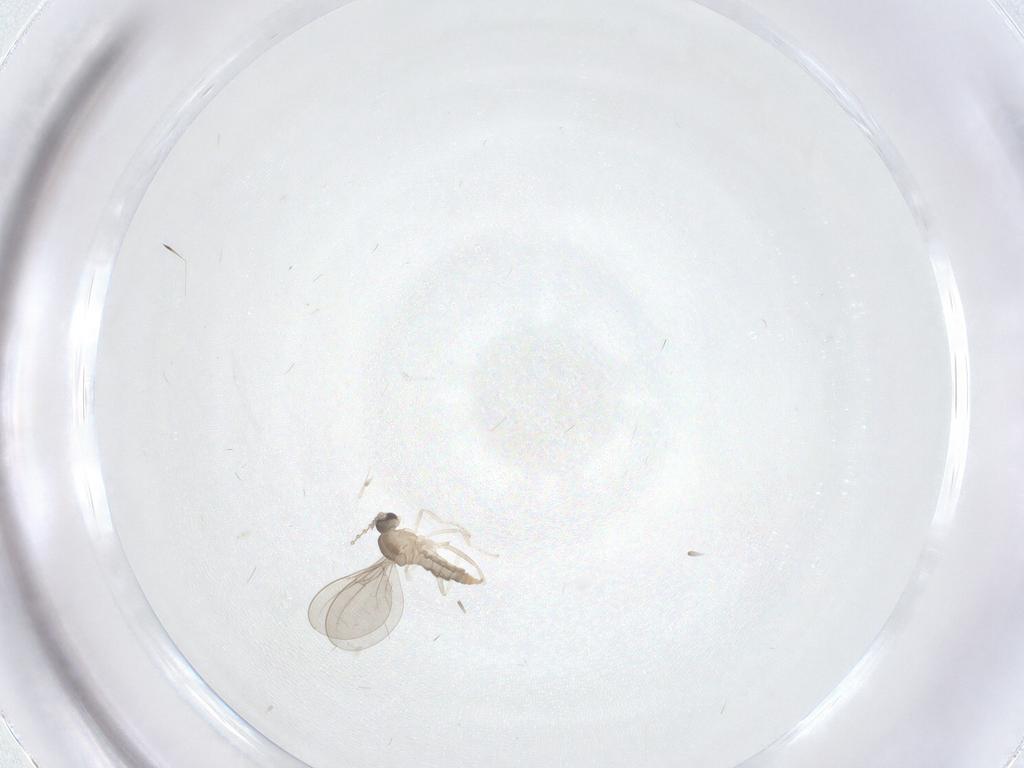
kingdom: Animalia
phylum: Arthropoda
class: Insecta
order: Diptera
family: Cecidomyiidae
